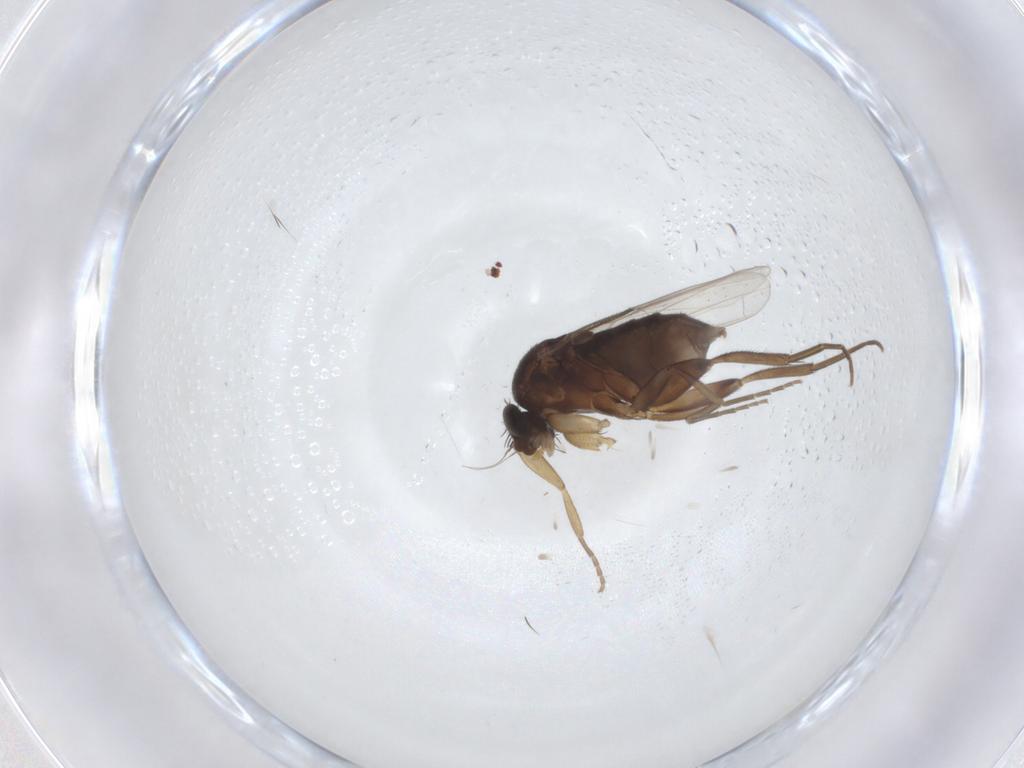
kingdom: Animalia
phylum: Arthropoda
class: Insecta
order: Diptera
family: Phoridae
